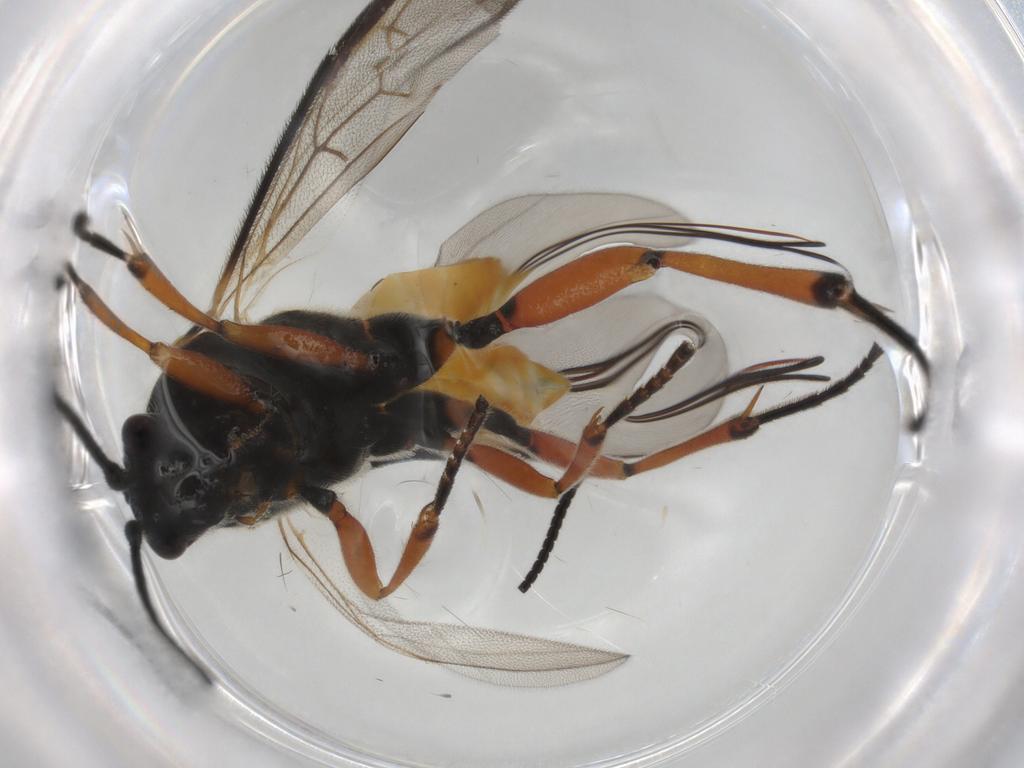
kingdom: Animalia
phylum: Arthropoda
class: Insecta
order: Hymenoptera
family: Braconidae
